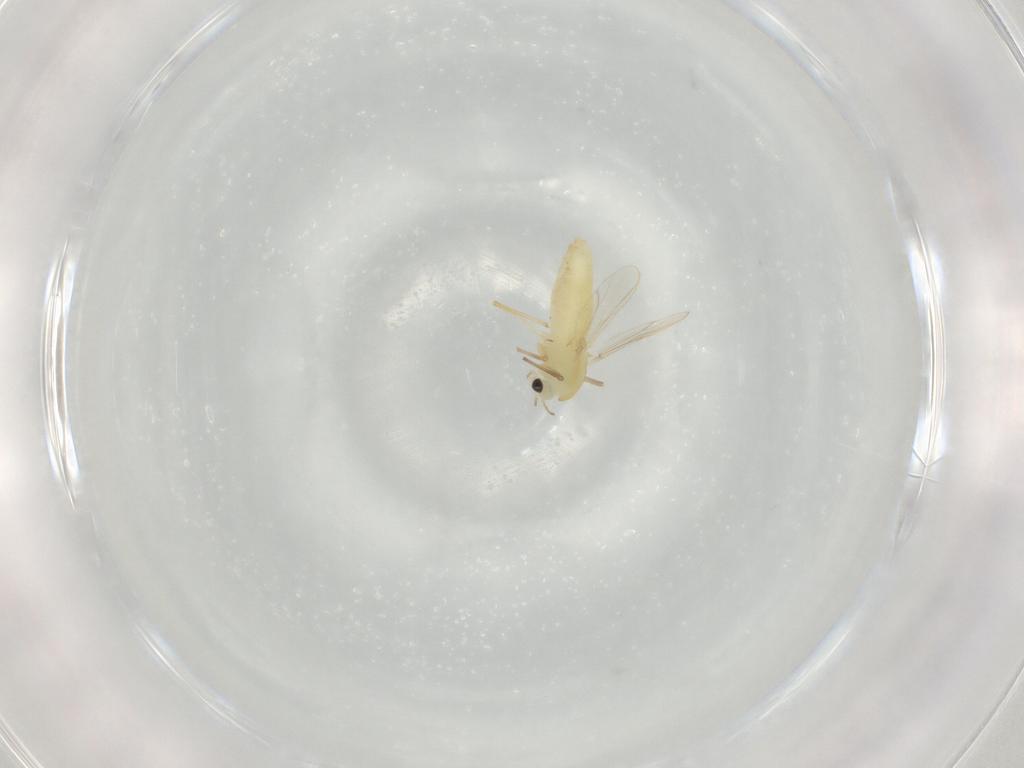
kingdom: Animalia
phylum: Arthropoda
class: Insecta
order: Diptera
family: Chironomidae
